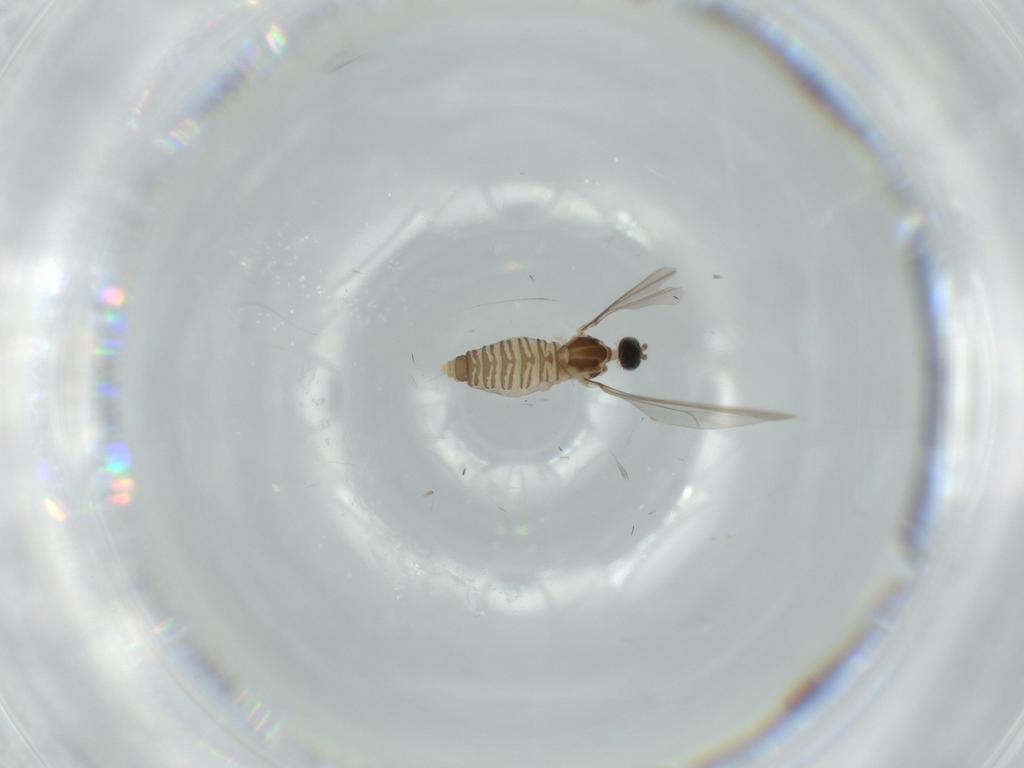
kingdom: Animalia
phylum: Arthropoda
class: Insecta
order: Diptera
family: Cecidomyiidae
